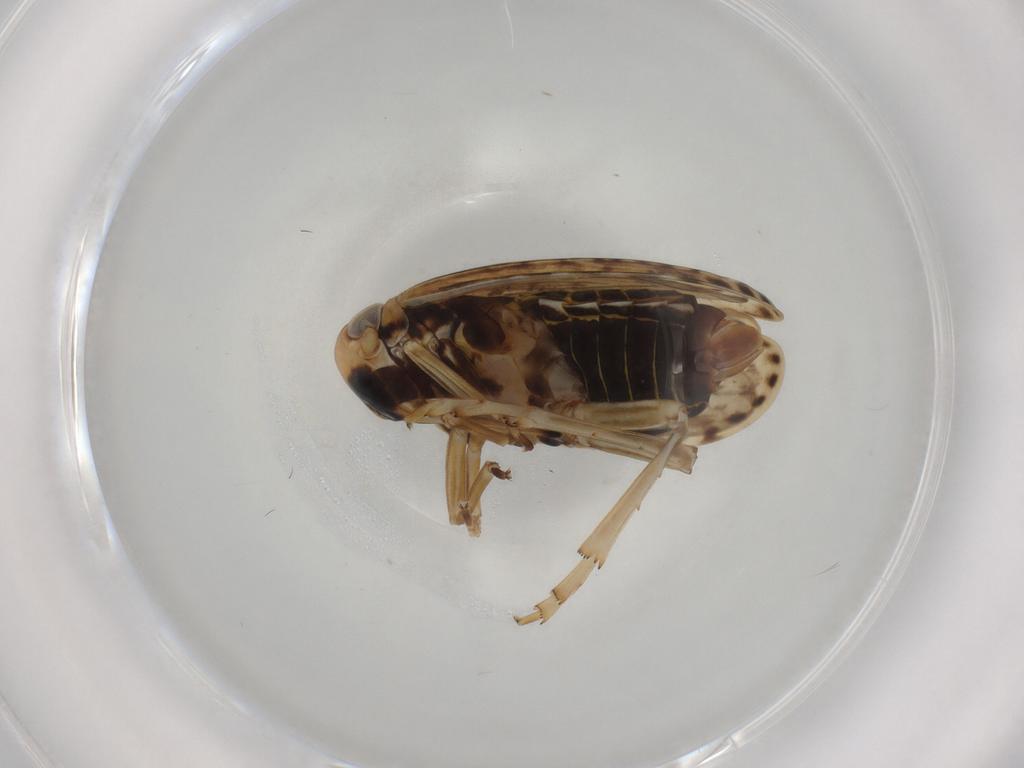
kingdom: Animalia
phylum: Arthropoda
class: Insecta
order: Hemiptera
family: Achilidae
